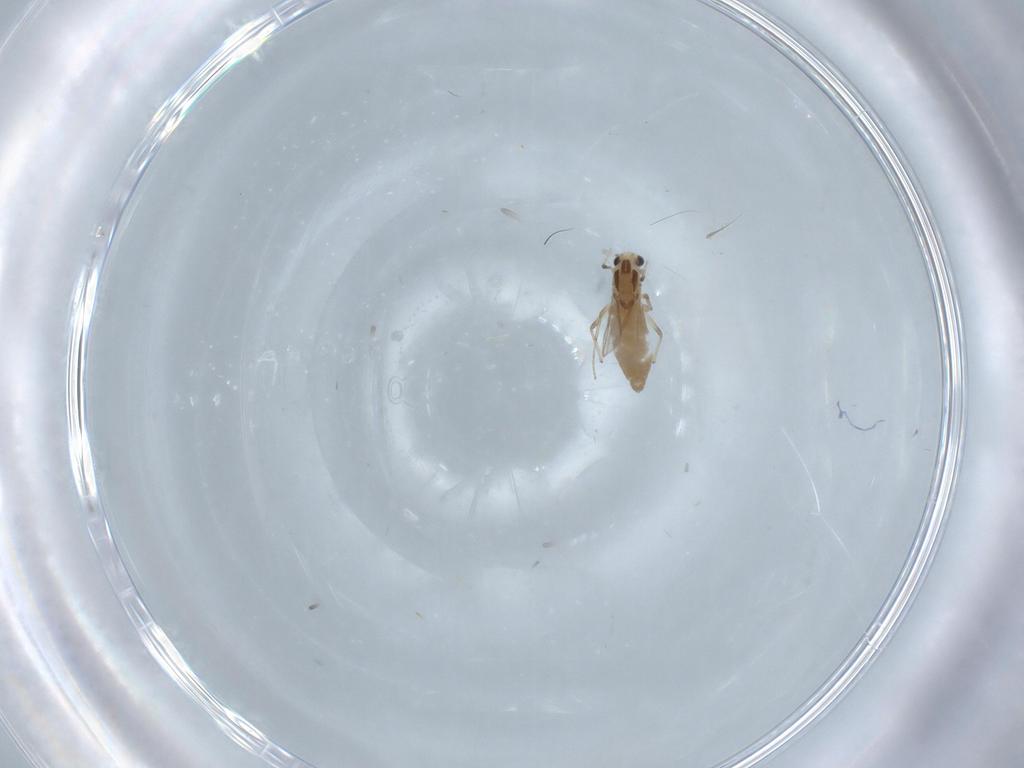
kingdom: Animalia
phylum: Arthropoda
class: Insecta
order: Diptera
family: Chironomidae
